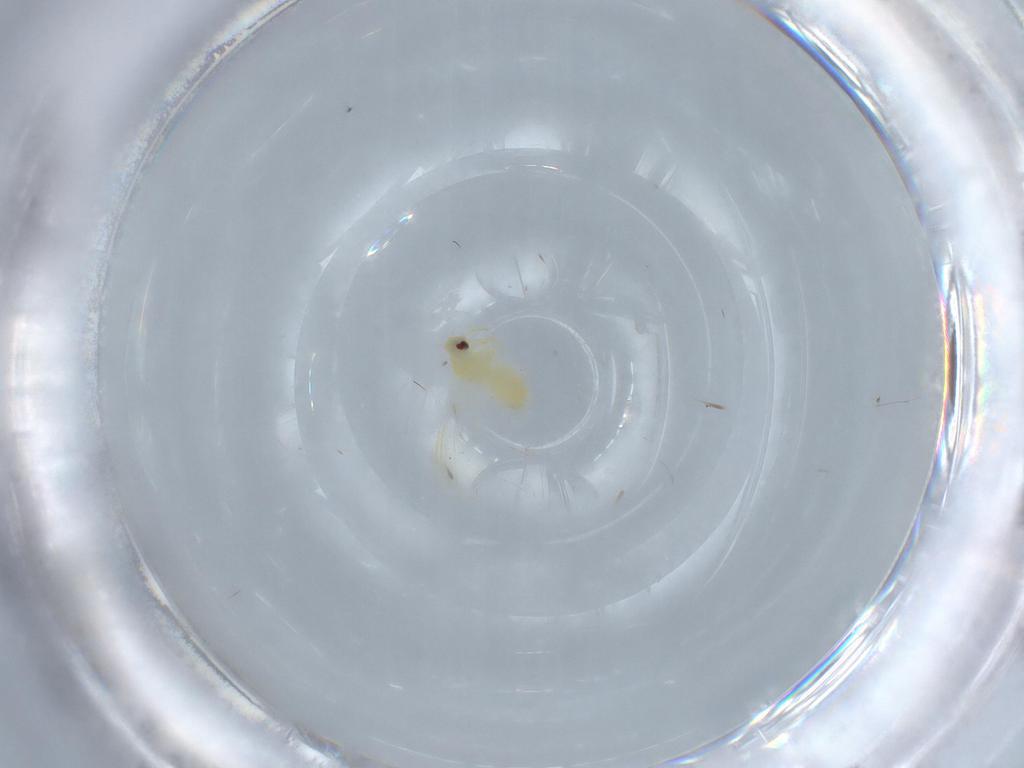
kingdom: Animalia
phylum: Arthropoda
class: Insecta
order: Hemiptera
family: Aleyrodidae
